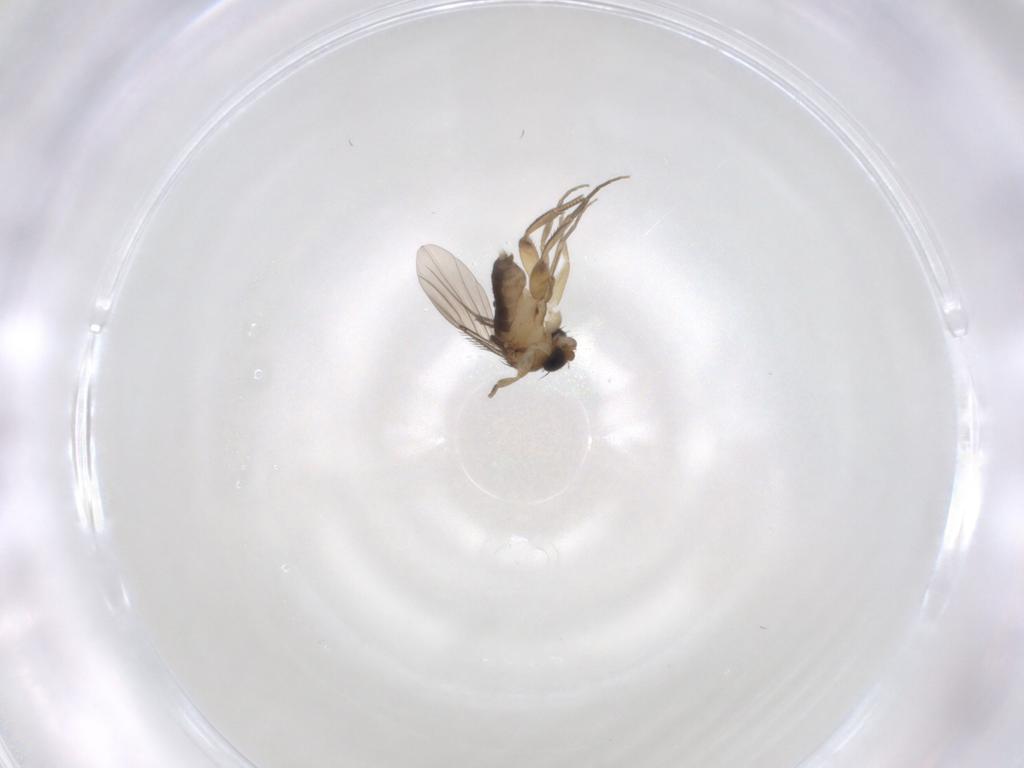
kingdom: Animalia
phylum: Arthropoda
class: Insecta
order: Diptera
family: Phoridae
